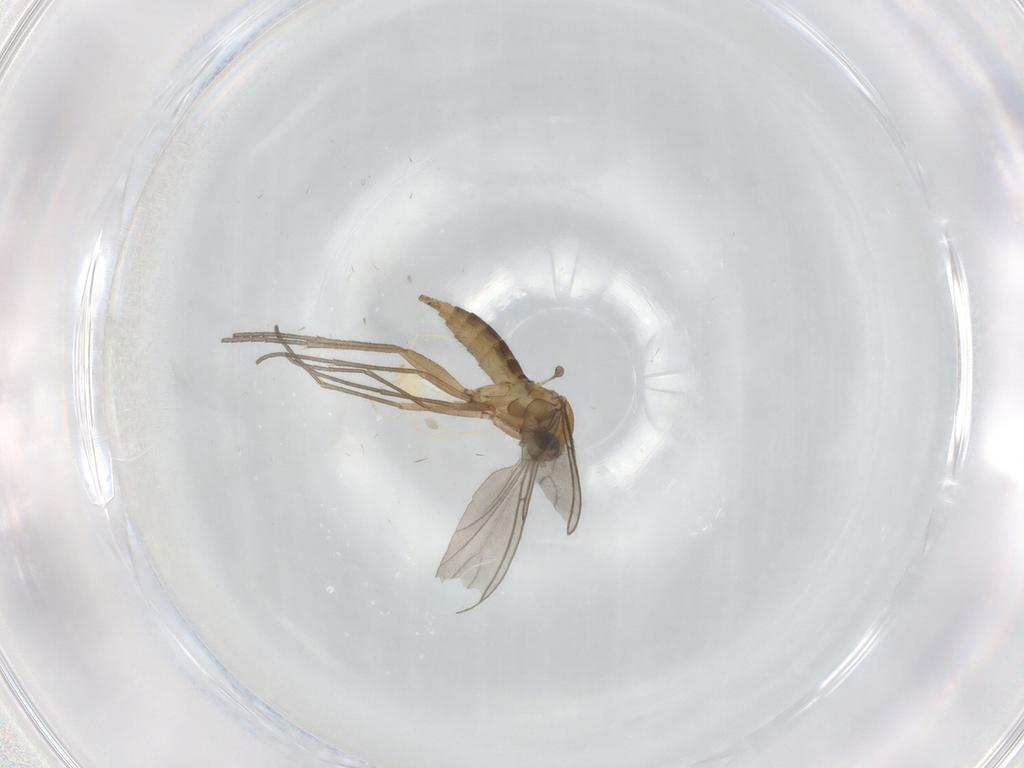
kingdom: Animalia
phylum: Arthropoda
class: Insecta
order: Diptera
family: Sciaridae
